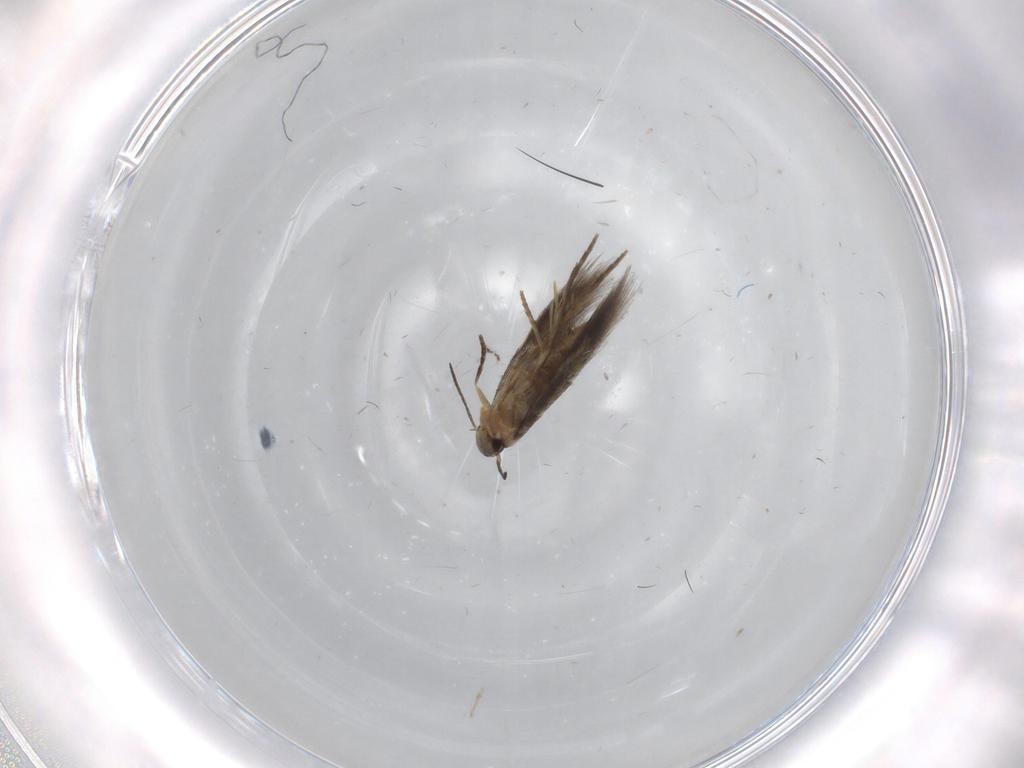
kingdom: Animalia
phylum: Arthropoda
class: Insecta
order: Lepidoptera
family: Heliozelidae
